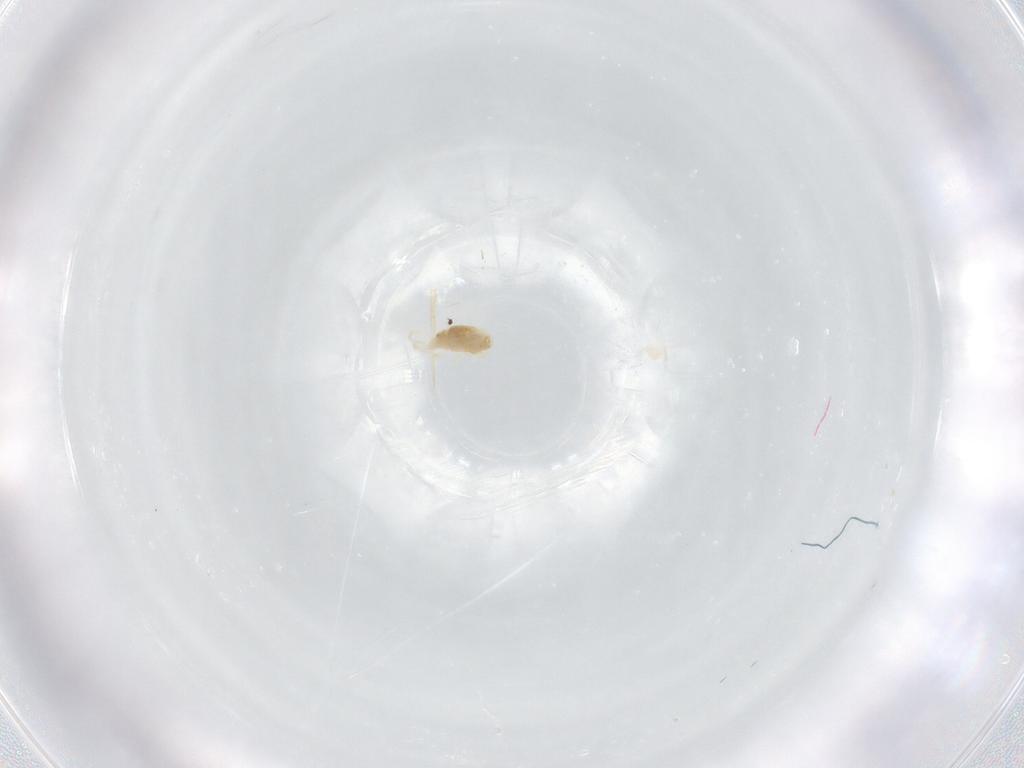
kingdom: Animalia
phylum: Arthropoda
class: Arachnida
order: Trombidiformes
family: Eupodidae
